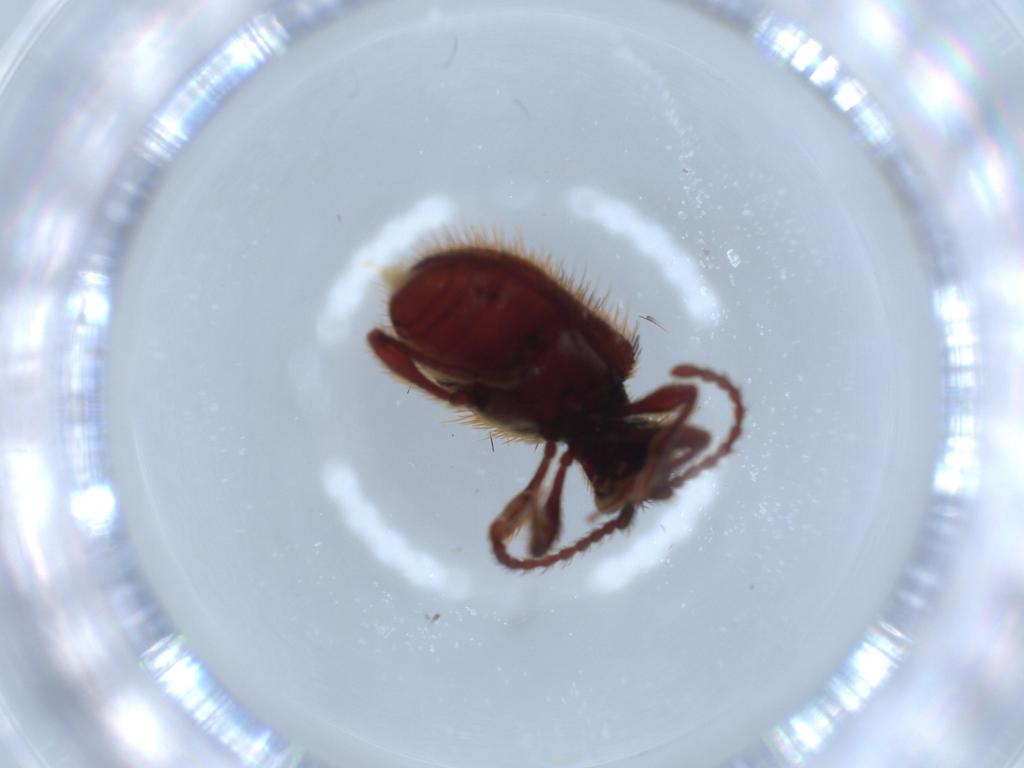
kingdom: Animalia
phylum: Arthropoda
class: Insecta
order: Coleoptera
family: Curculionidae
